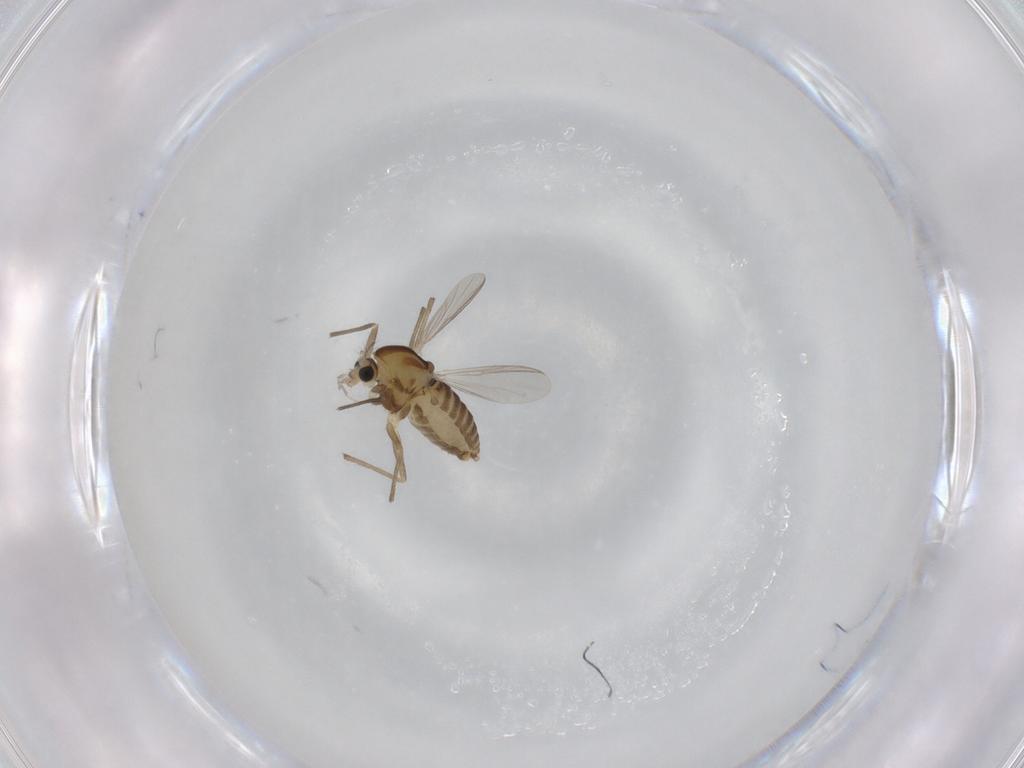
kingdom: Animalia
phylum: Arthropoda
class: Insecta
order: Diptera
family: Chironomidae
